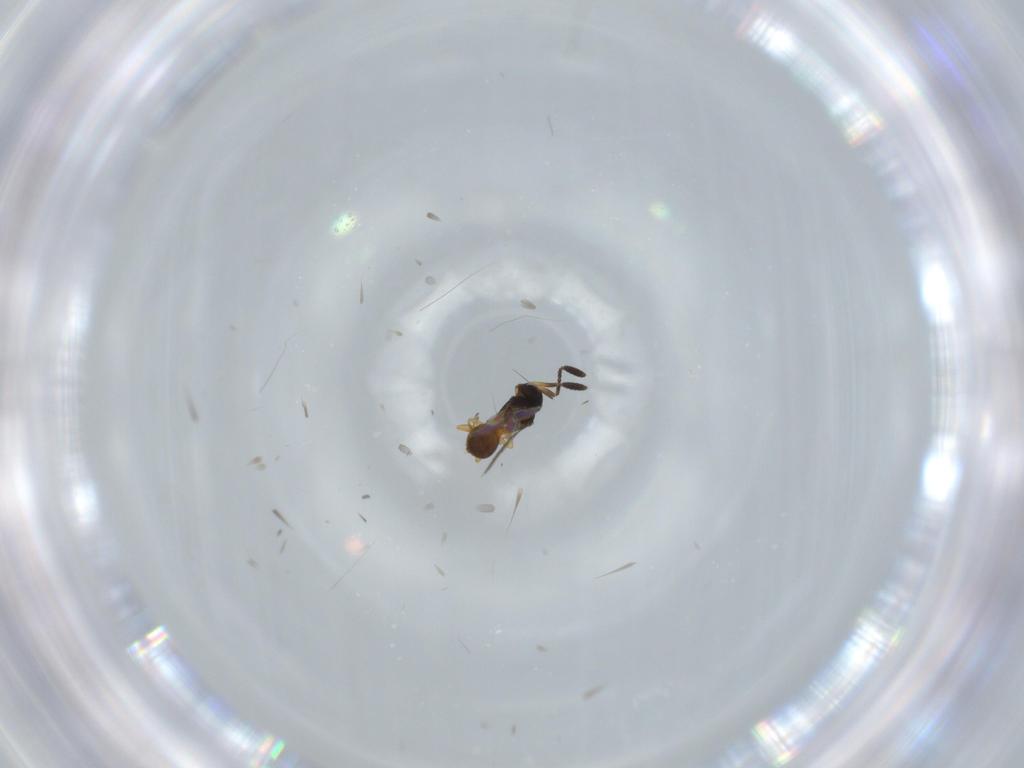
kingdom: Animalia
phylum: Arthropoda
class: Insecta
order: Hymenoptera
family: Scelionidae
